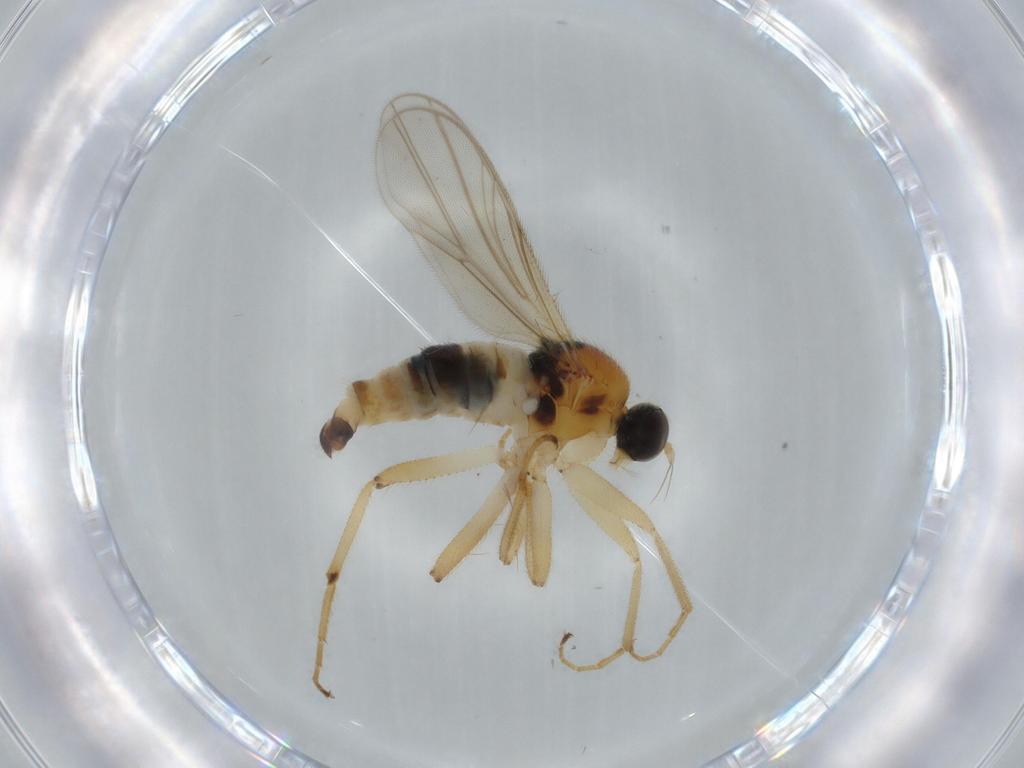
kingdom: Animalia
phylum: Arthropoda
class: Insecta
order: Diptera
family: Hybotidae
